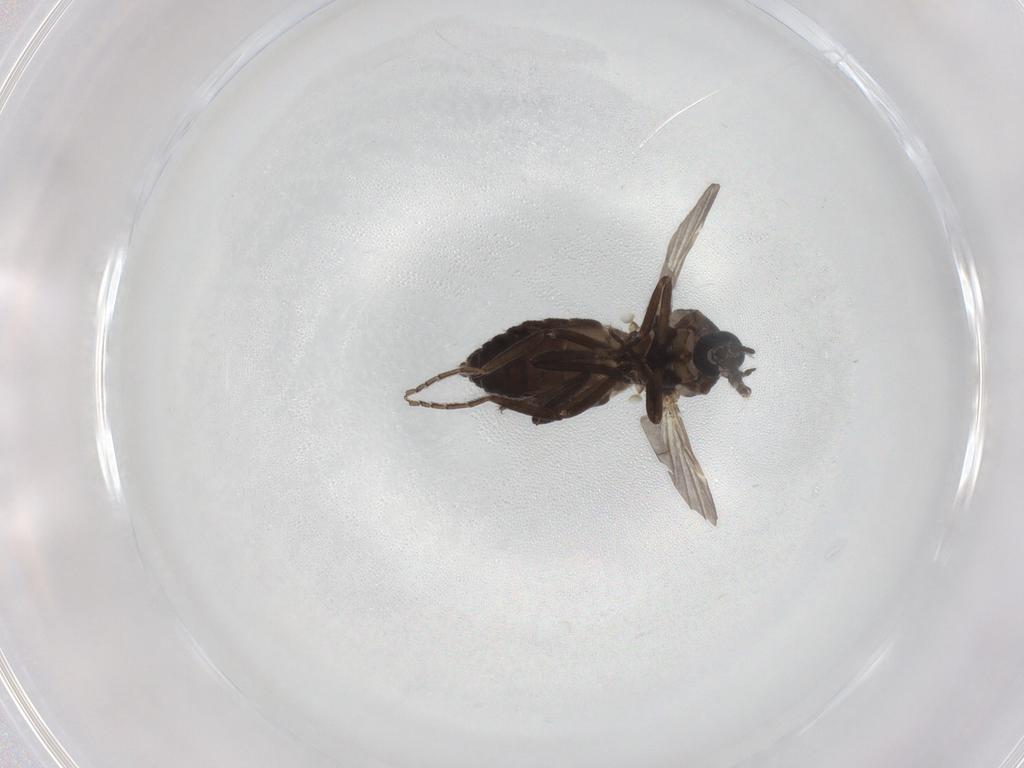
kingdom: Animalia
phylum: Arthropoda
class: Insecta
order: Diptera
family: Ceratopogonidae
